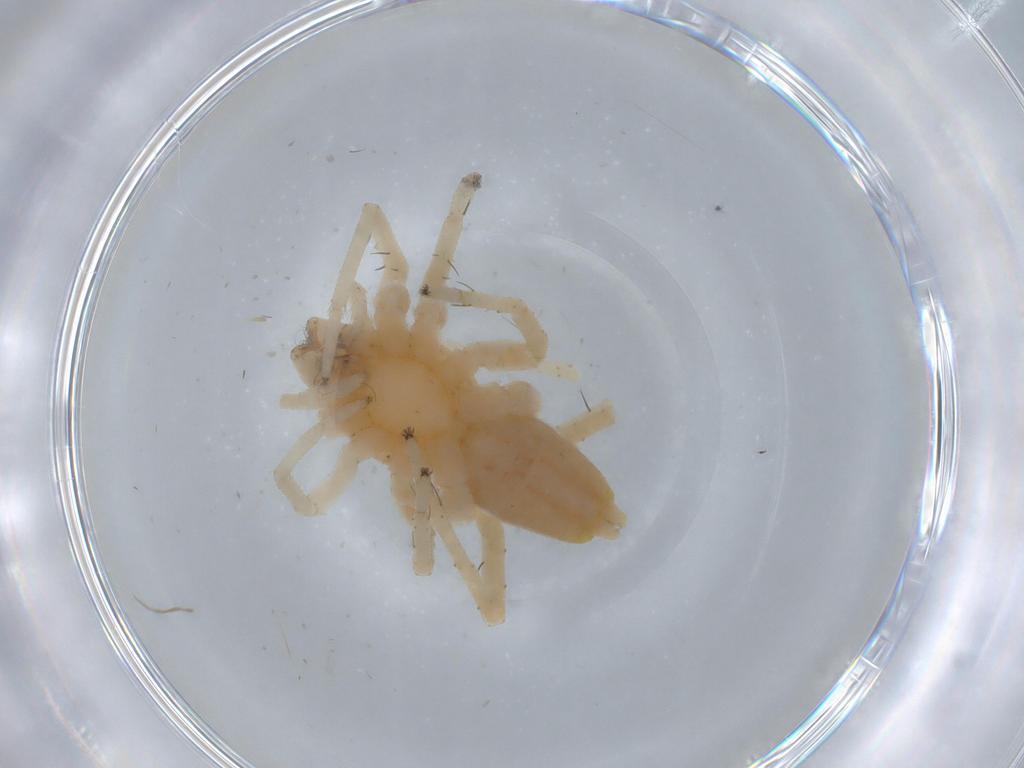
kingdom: Animalia
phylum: Arthropoda
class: Arachnida
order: Araneae
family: Anyphaenidae
